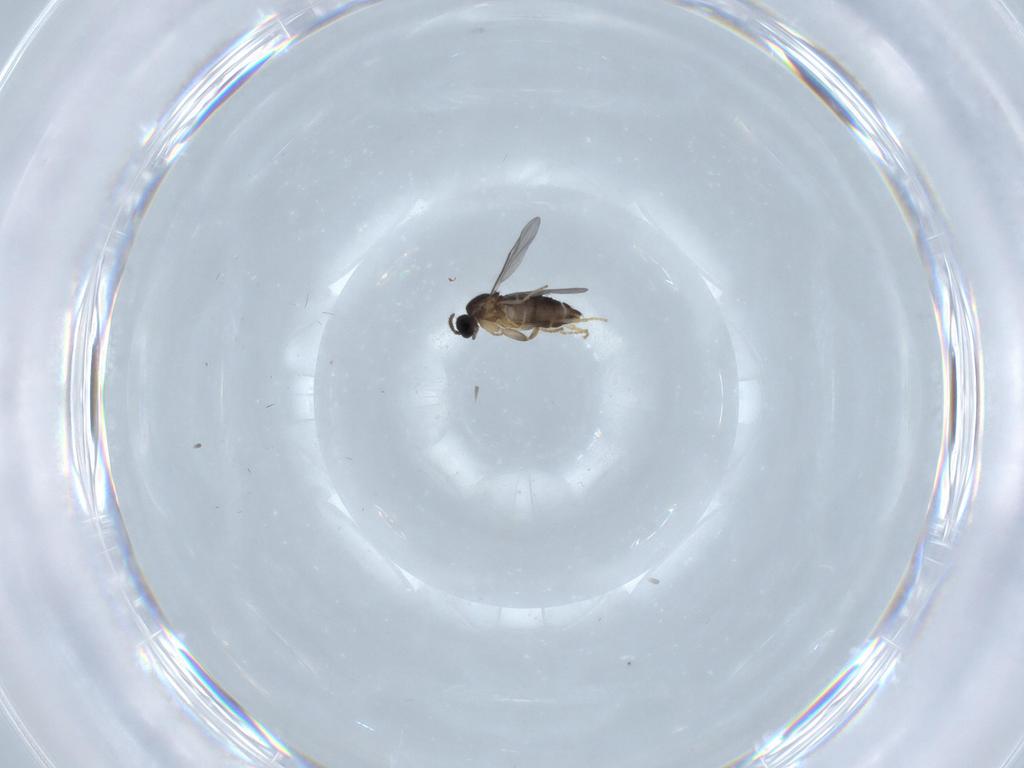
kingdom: Animalia
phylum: Arthropoda
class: Insecta
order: Diptera
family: Scatopsidae
